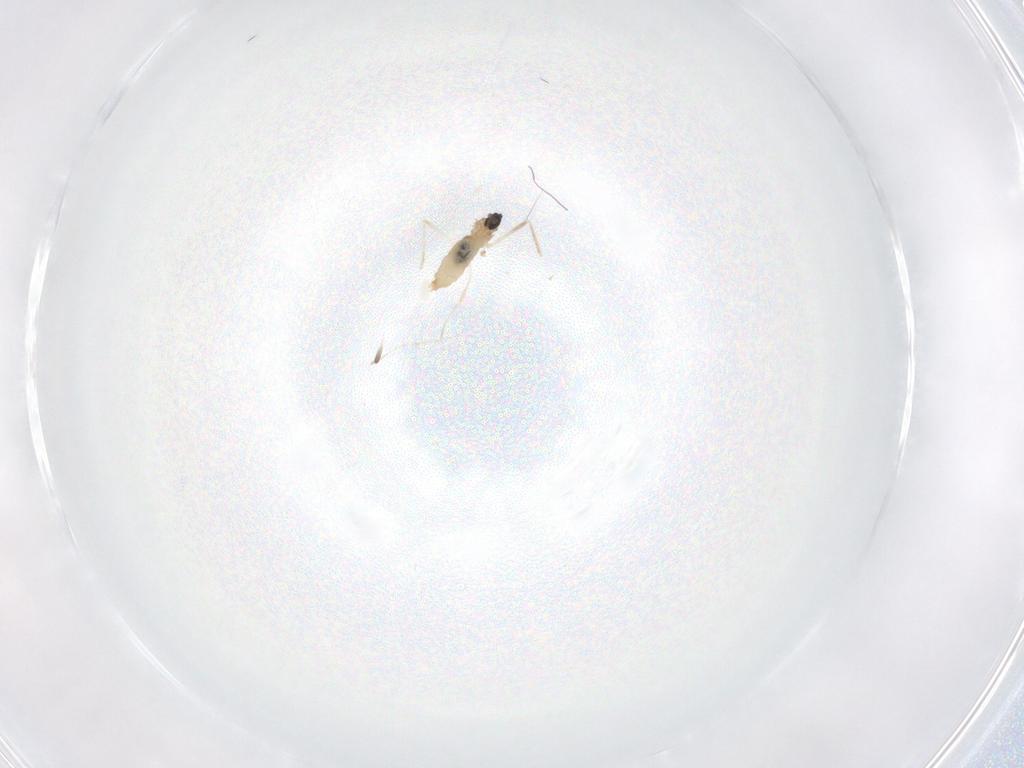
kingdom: Animalia
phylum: Arthropoda
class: Insecta
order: Diptera
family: Cecidomyiidae
